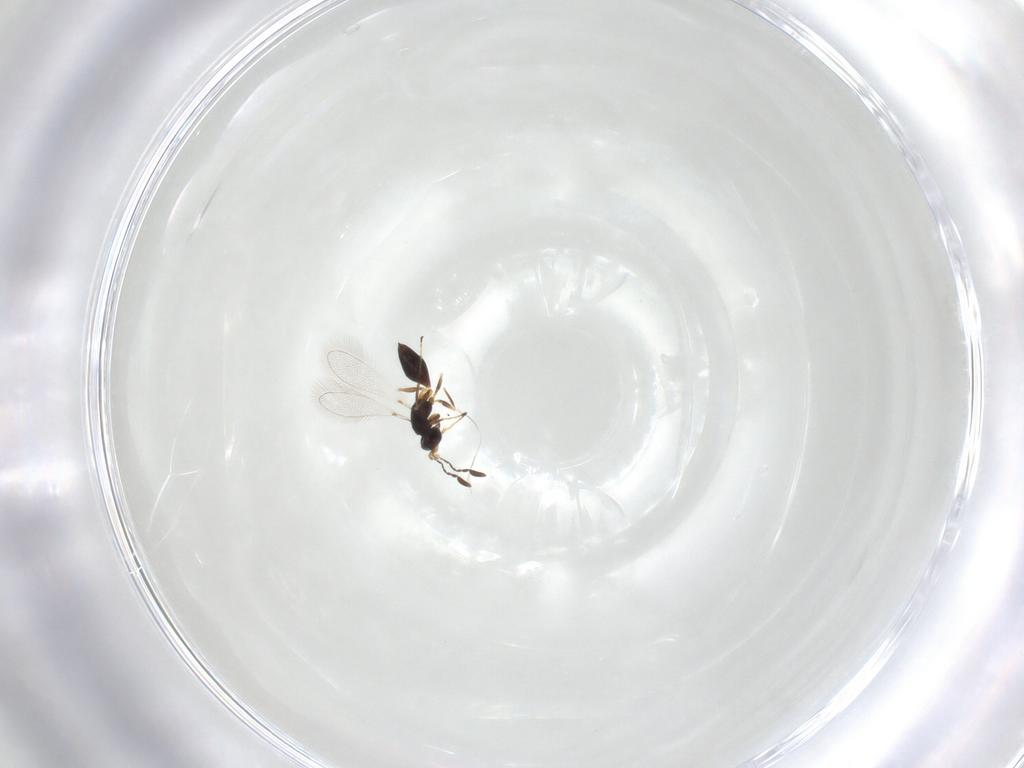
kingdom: Animalia
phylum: Arthropoda
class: Insecta
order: Hymenoptera
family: Mymaridae
